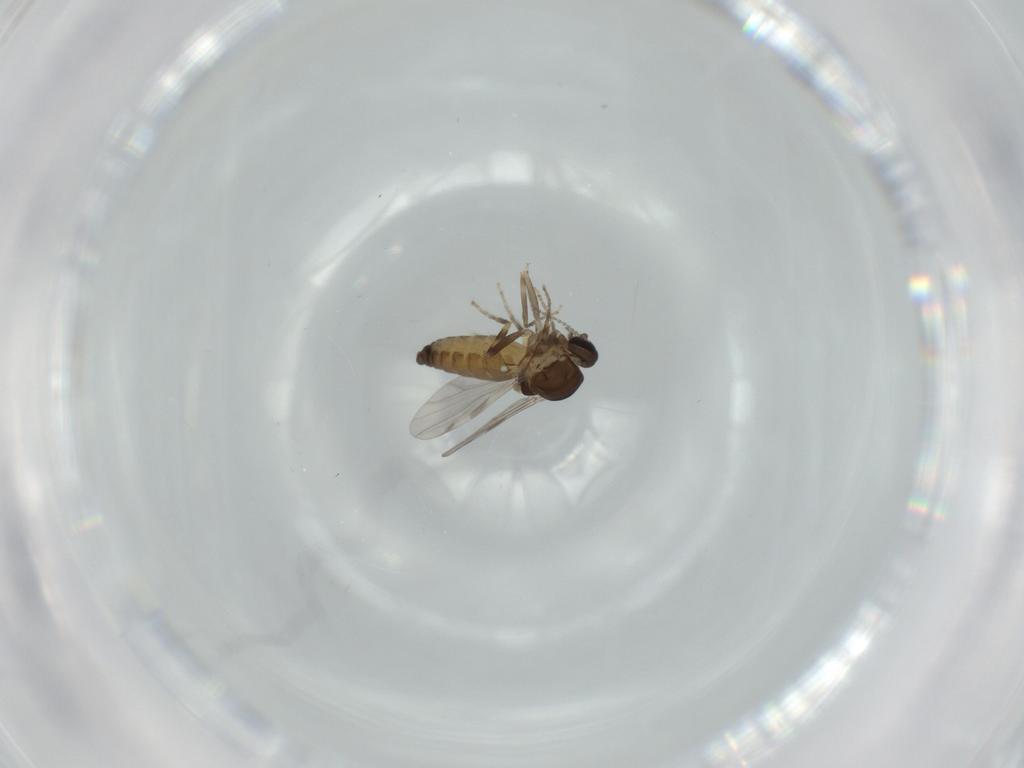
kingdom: Animalia
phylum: Arthropoda
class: Insecta
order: Diptera
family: Ceratopogonidae
